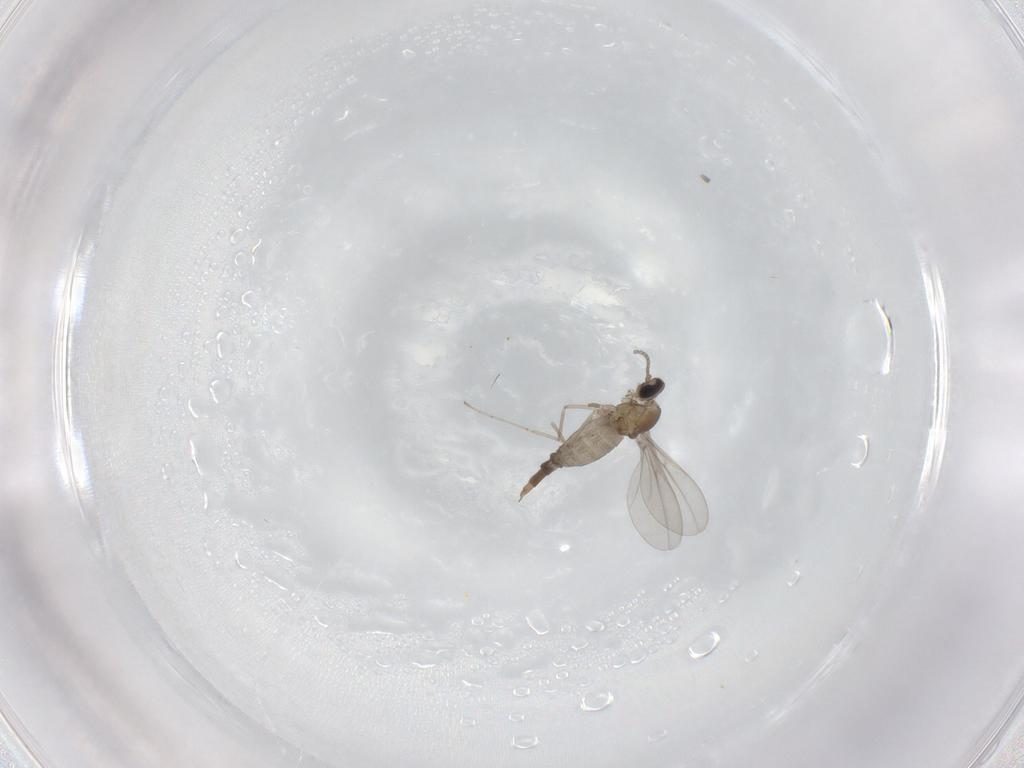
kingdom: Animalia
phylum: Arthropoda
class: Insecta
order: Diptera
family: Cecidomyiidae
